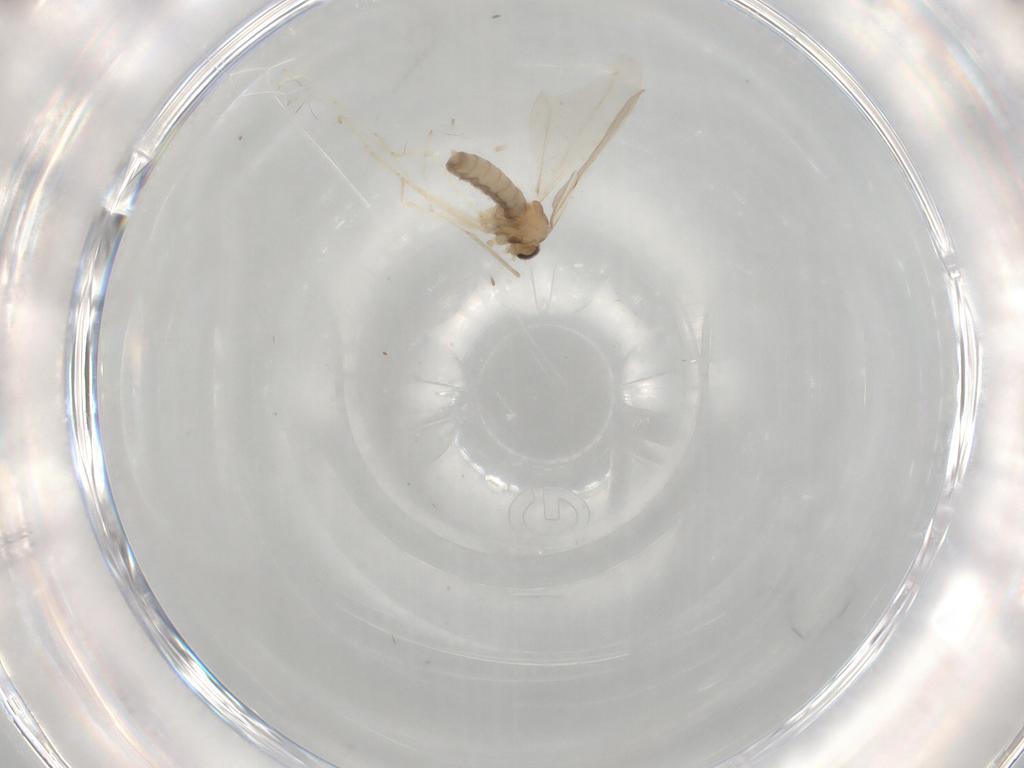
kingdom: Animalia
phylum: Arthropoda
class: Insecta
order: Diptera
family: Cecidomyiidae
